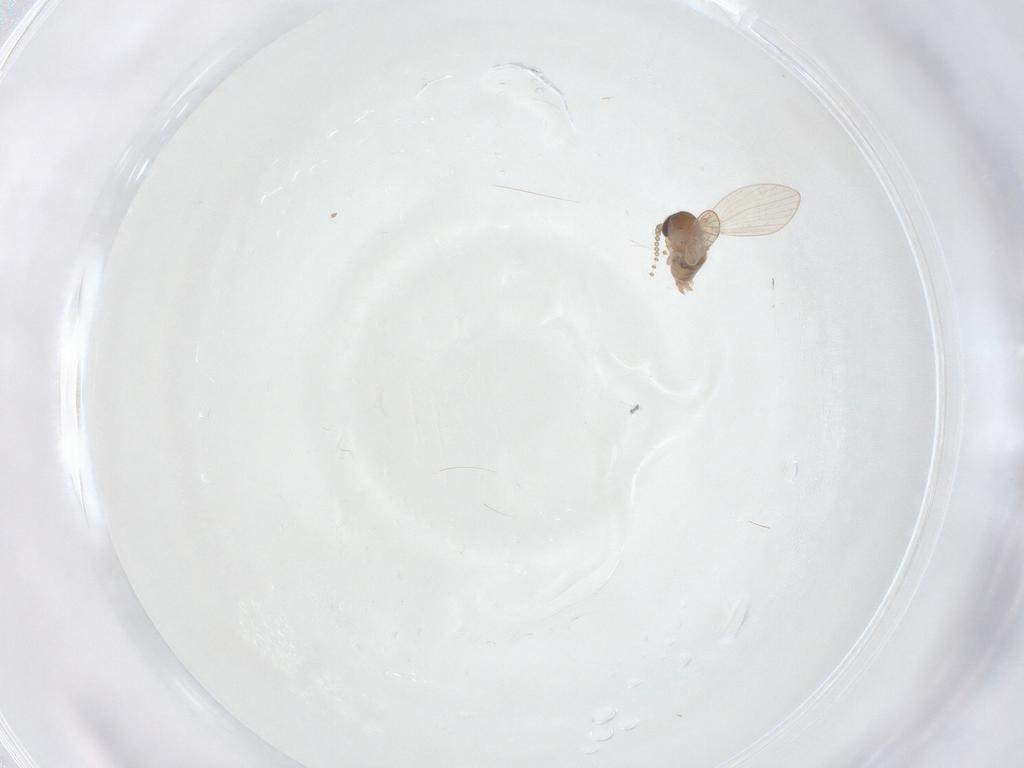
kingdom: Animalia
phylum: Arthropoda
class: Insecta
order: Diptera
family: Psychodidae
